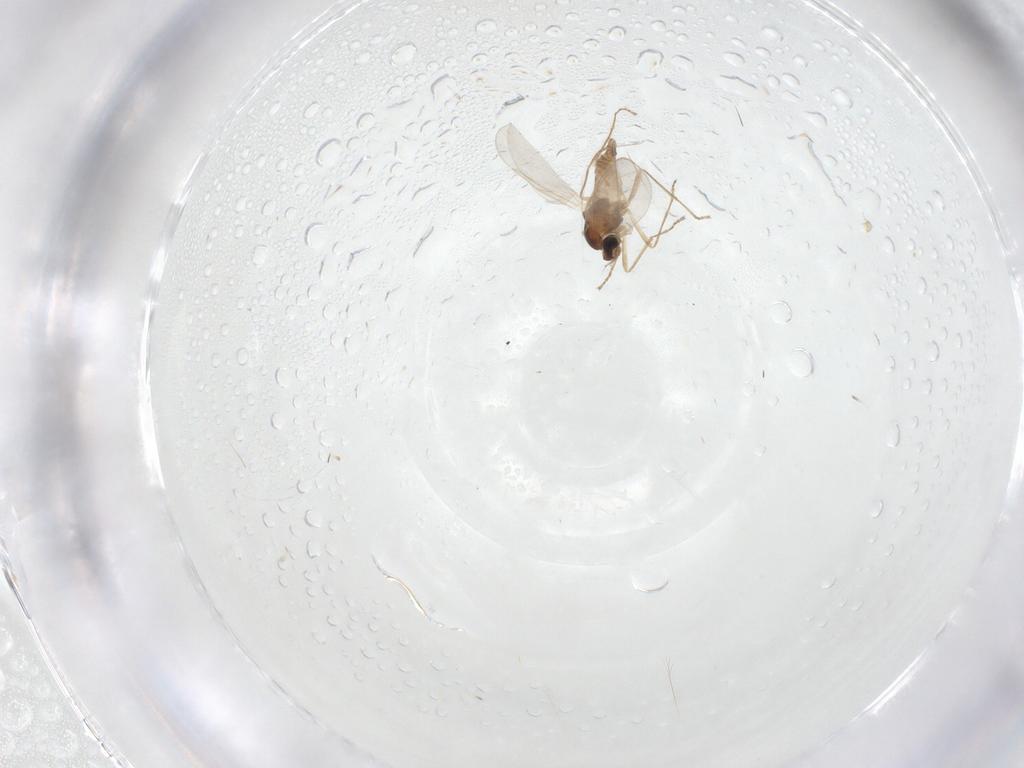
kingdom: Animalia
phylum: Arthropoda
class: Insecta
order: Diptera
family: Cecidomyiidae
